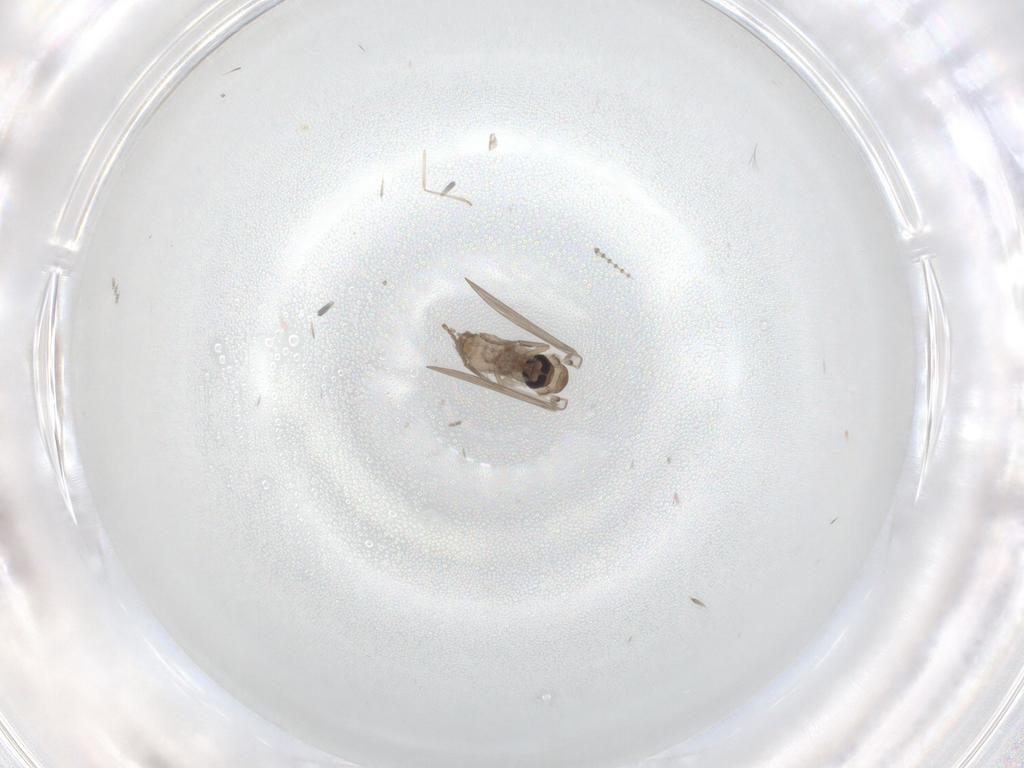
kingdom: Animalia
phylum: Arthropoda
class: Insecta
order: Diptera
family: Psychodidae
